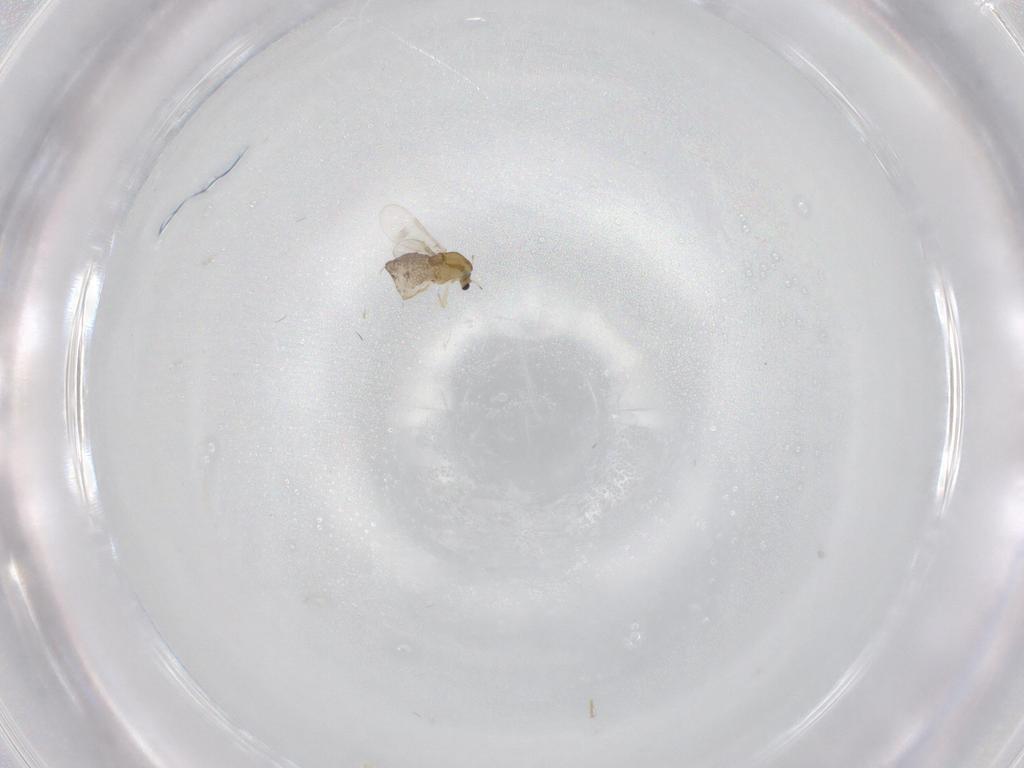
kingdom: Animalia
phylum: Arthropoda
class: Insecta
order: Diptera
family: Chironomidae
